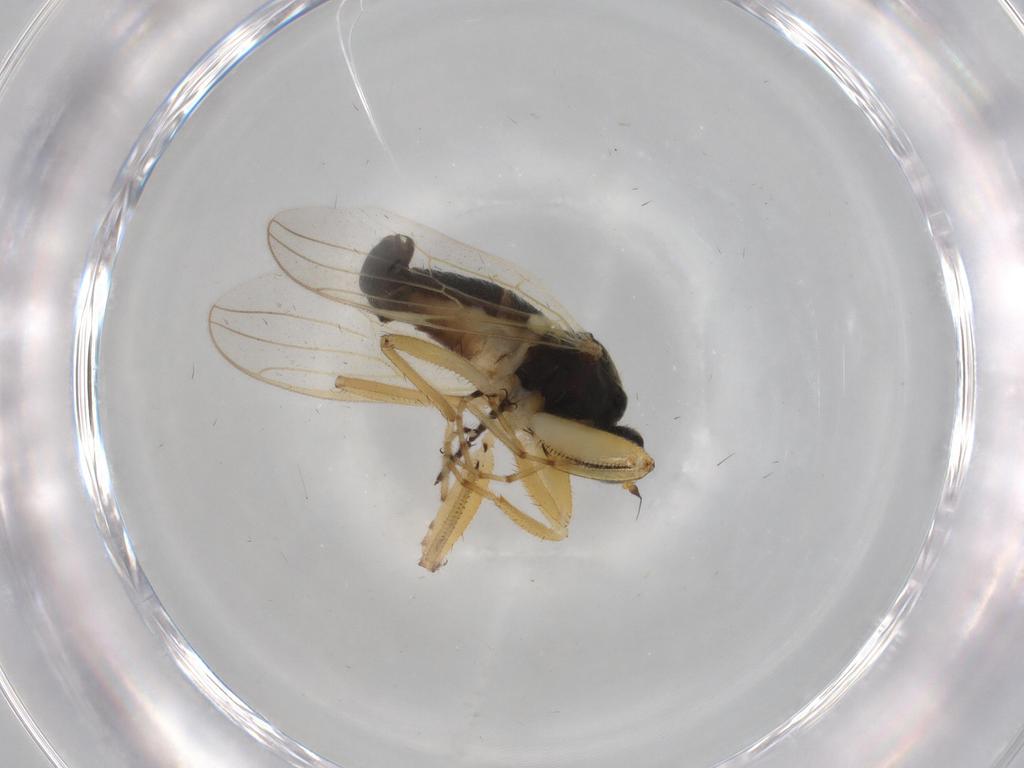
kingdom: Animalia
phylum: Arthropoda
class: Insecta
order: Diptera
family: Hybotidae
